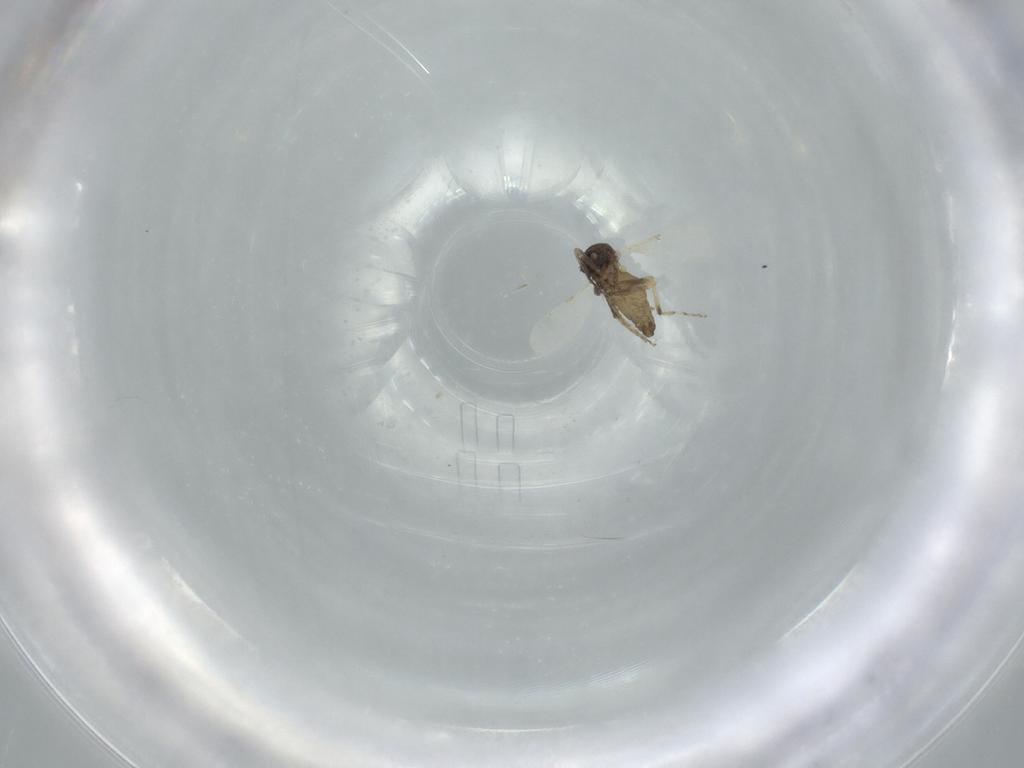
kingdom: Animalia
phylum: Arthropoda
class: Insecta
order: Diptera
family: Ceratopogonidae
